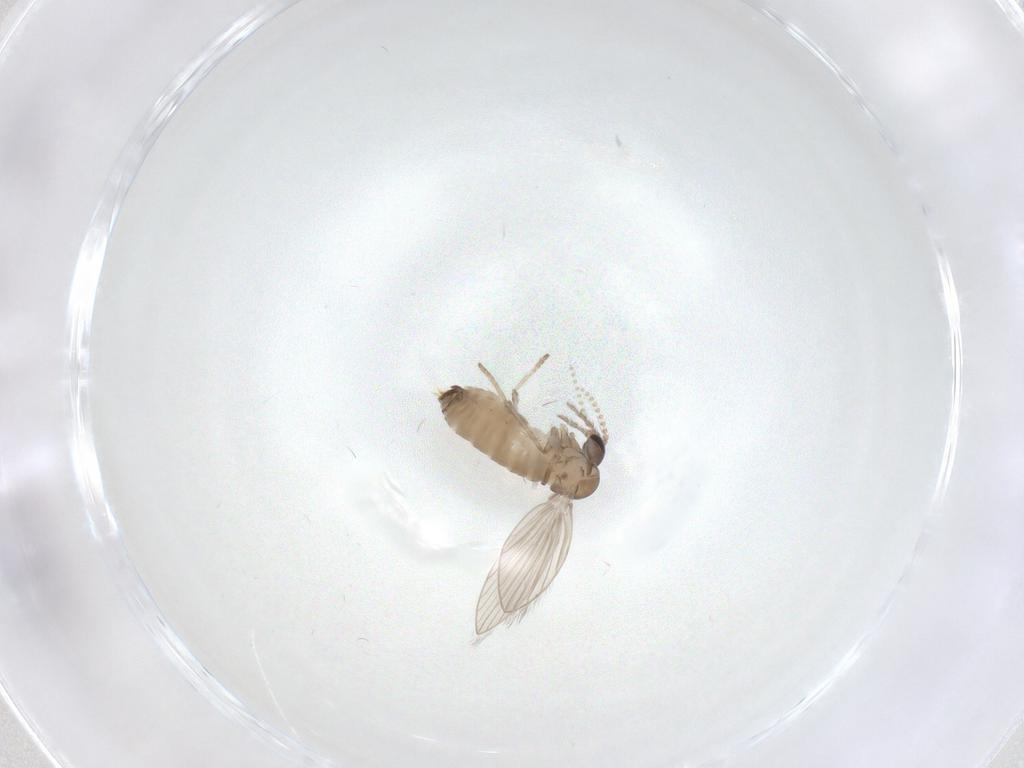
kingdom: Animalia
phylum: Arthropoda
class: Insecta
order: Diptera
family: Psychodidae
